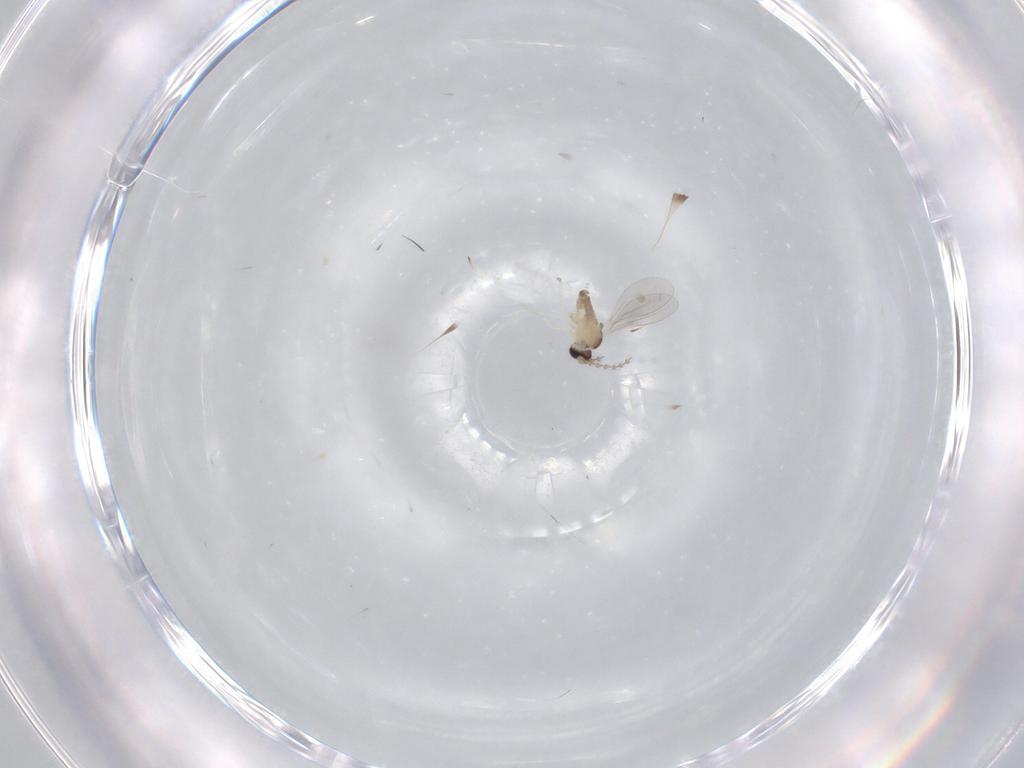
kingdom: Animalia
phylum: Arthropoda
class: Insecta
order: Diptera
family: Cecidomyiidae
